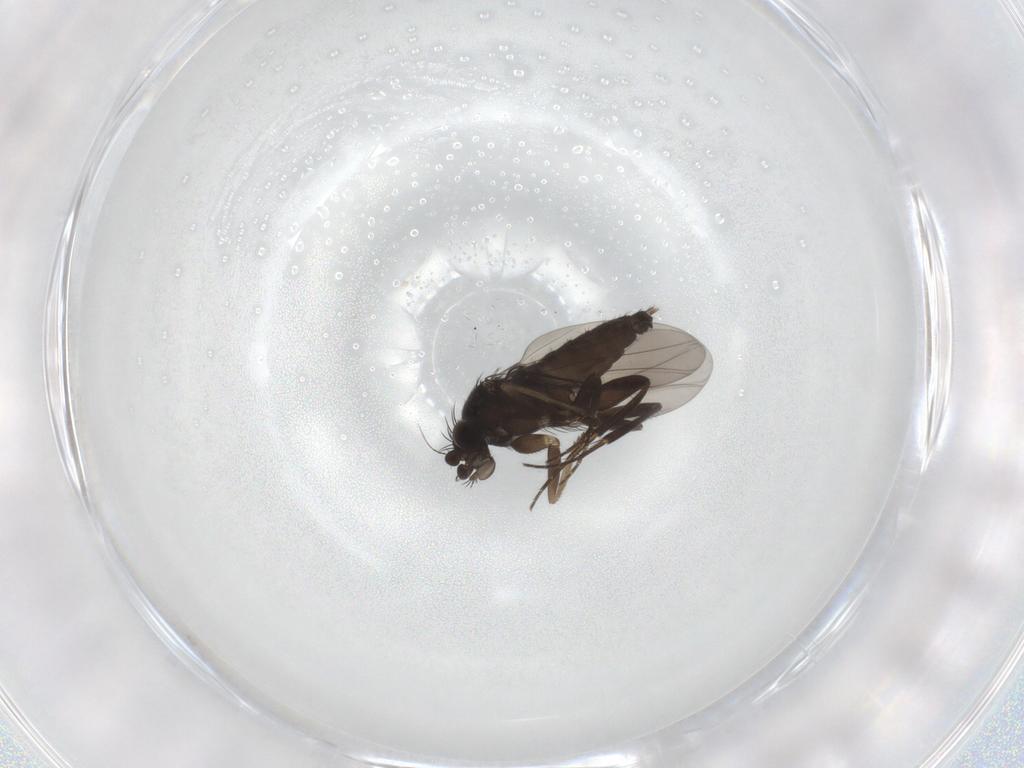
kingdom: Animalia
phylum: Arthropoda
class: Insecta
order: Diptera
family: Phoridae
